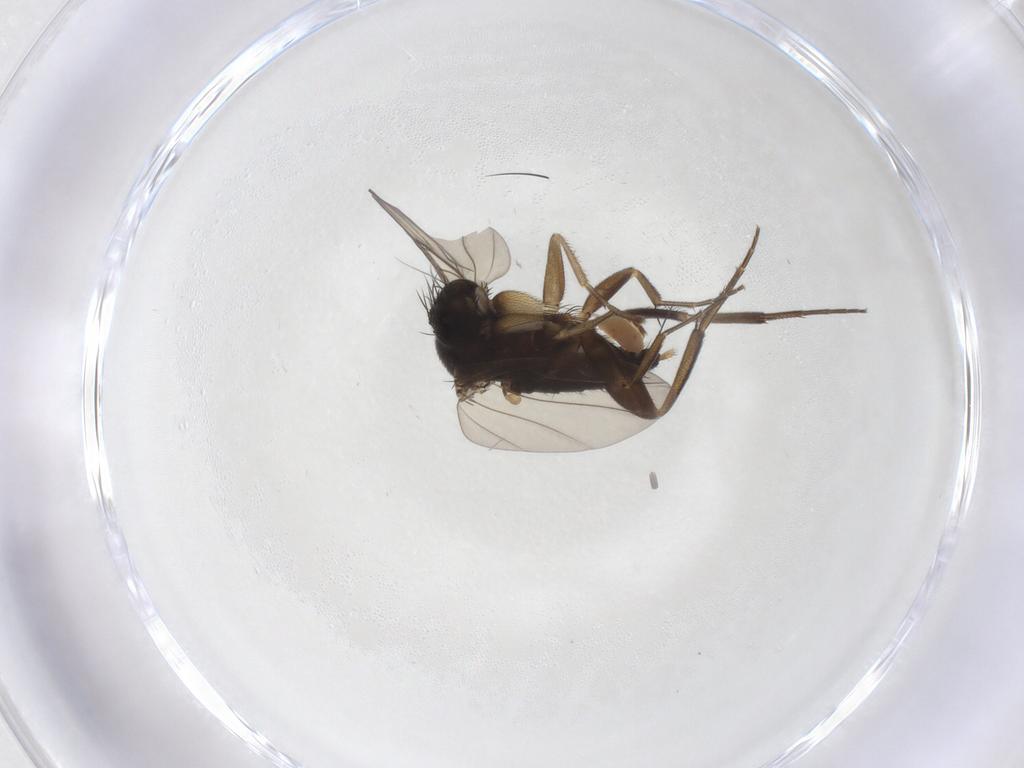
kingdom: Animalia
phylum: Arthropoda
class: Insecta
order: Diptera
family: Phoridae
